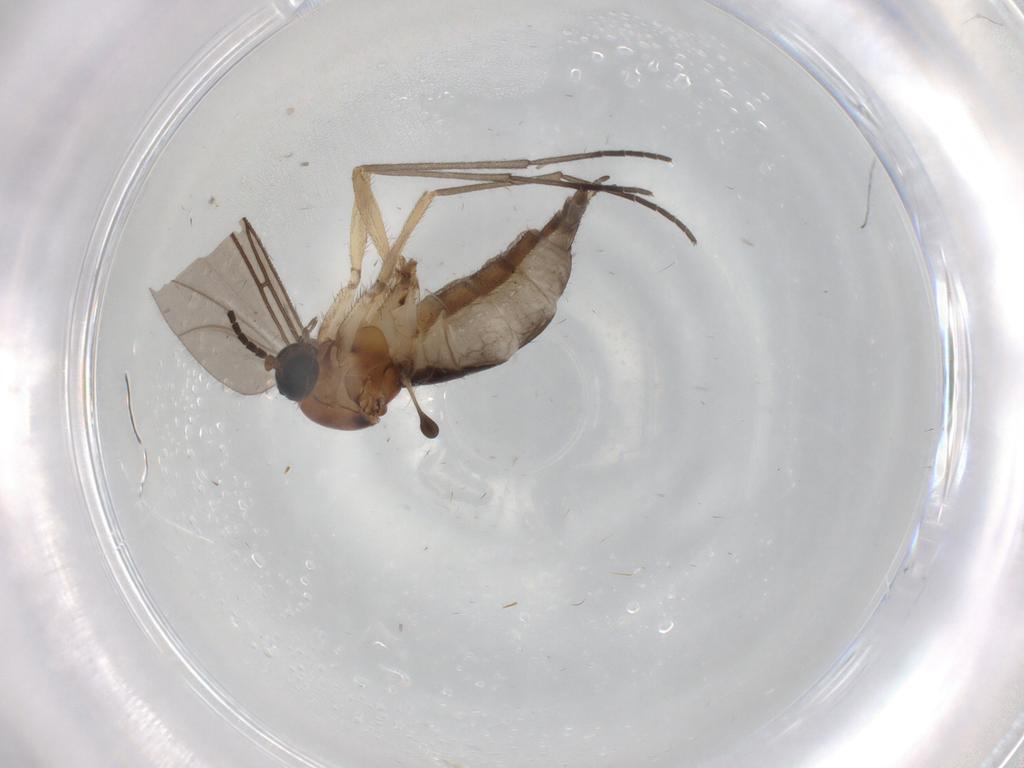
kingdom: Animalia
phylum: Arthropoda
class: Insecta
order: Diptera
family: Sciaridae
